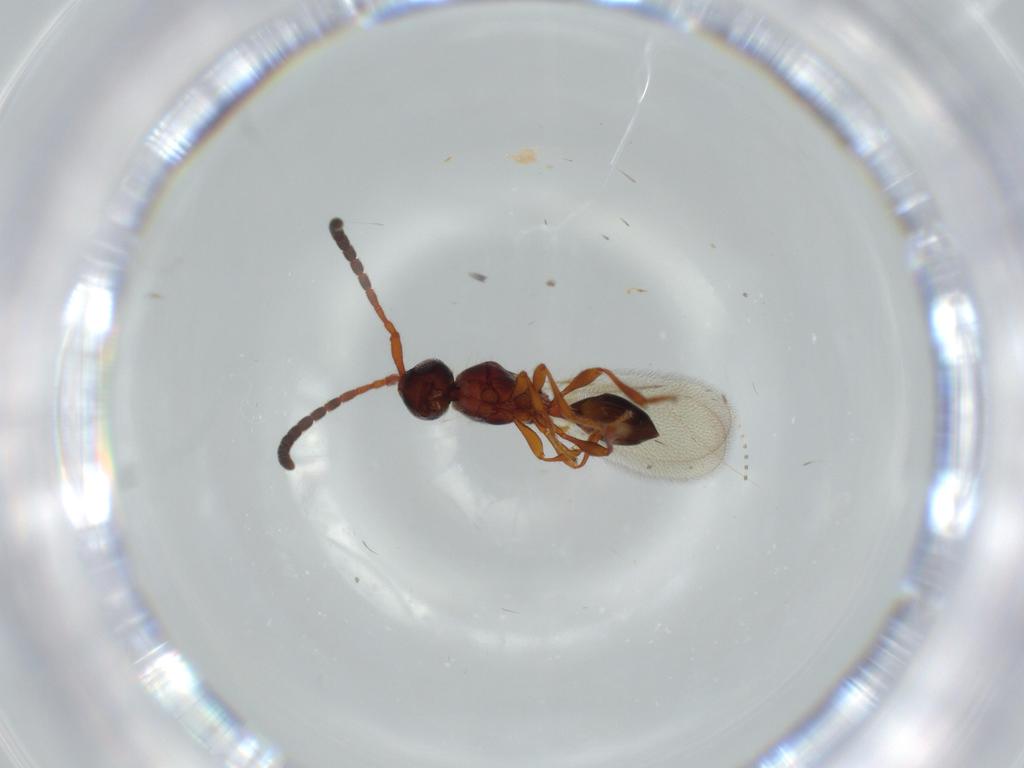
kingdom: Animalia
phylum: Arthropoda
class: Insecta
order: Hymenoptera
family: Diapriidae
